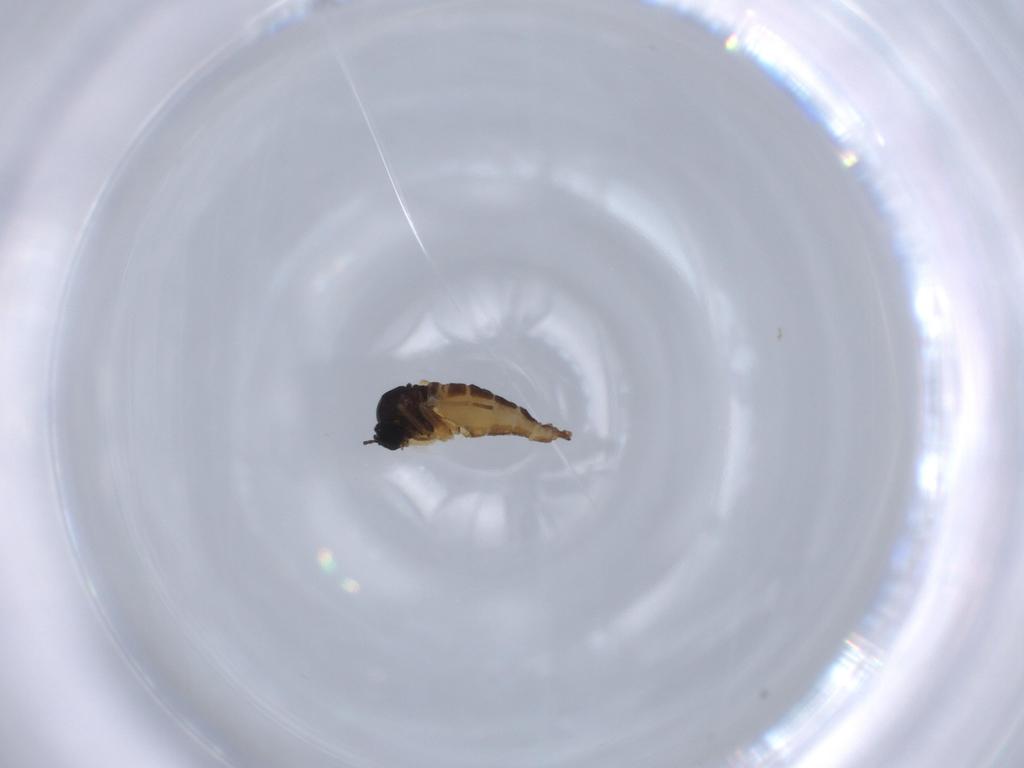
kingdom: Animalia
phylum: Arthropoda
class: Insecta
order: Diptera
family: Sciaridae
